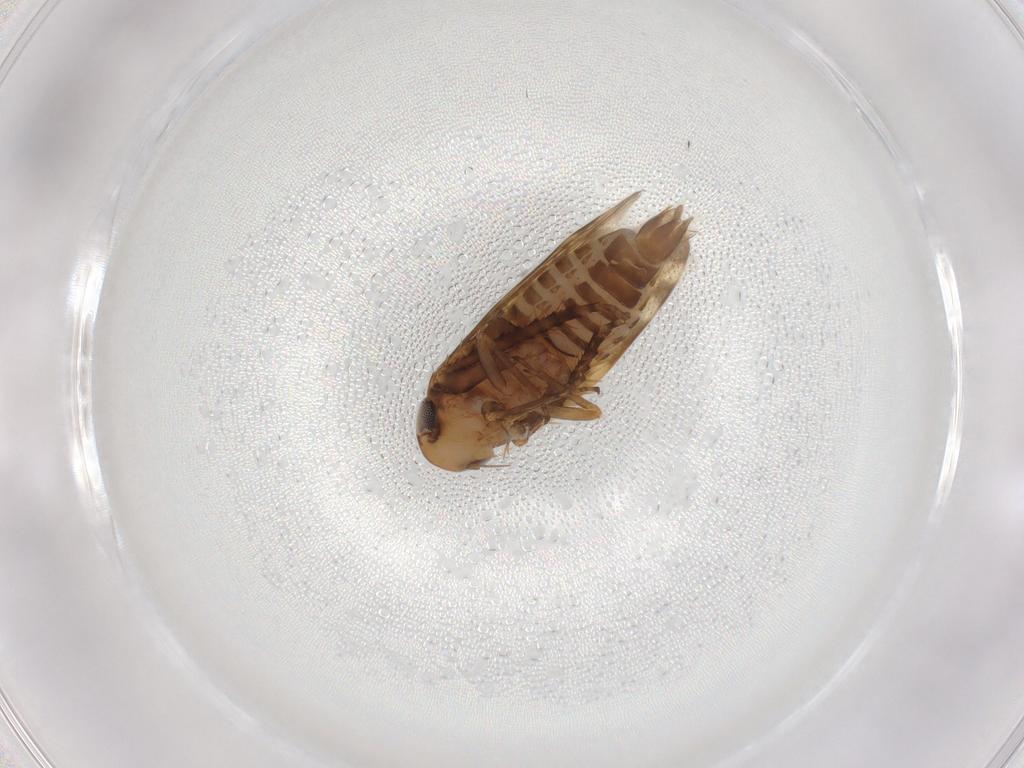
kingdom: Animalia
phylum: Arthropoda
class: Insecta
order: Hemiptera
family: Cicadellidae
